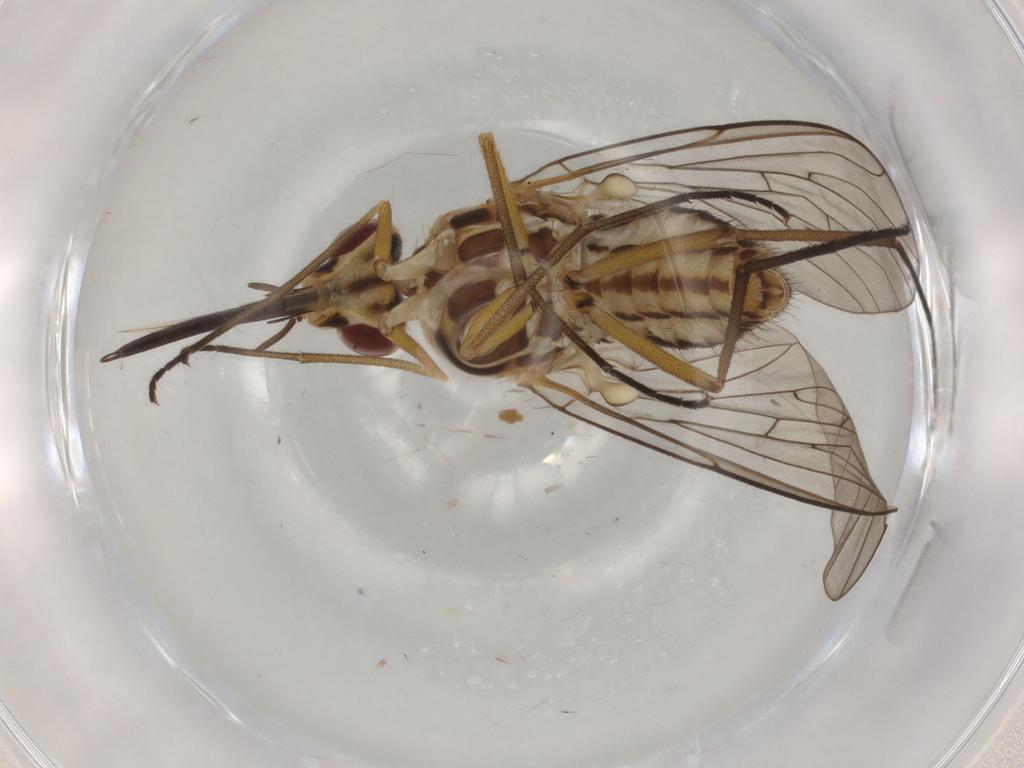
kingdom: Animalia
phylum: Arthropoda
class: Insecta
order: Diptera
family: Bombyliidae
